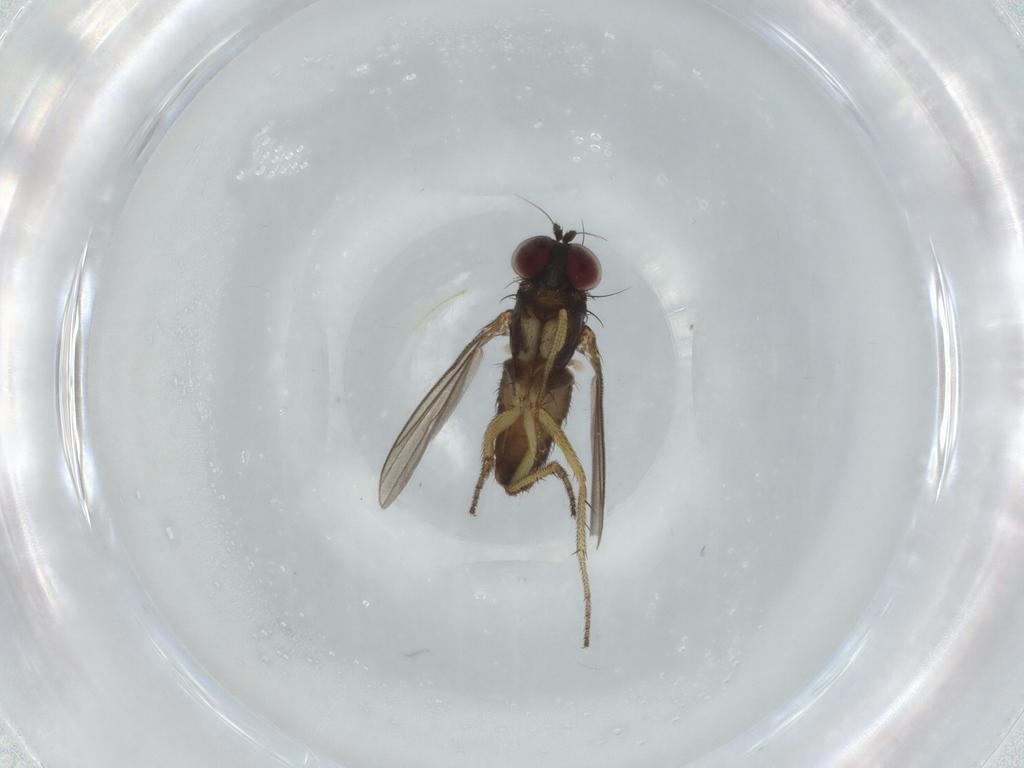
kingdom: Animalia
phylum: Arthropoda
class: Insecta
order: Diptera
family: Dolichopodidae
